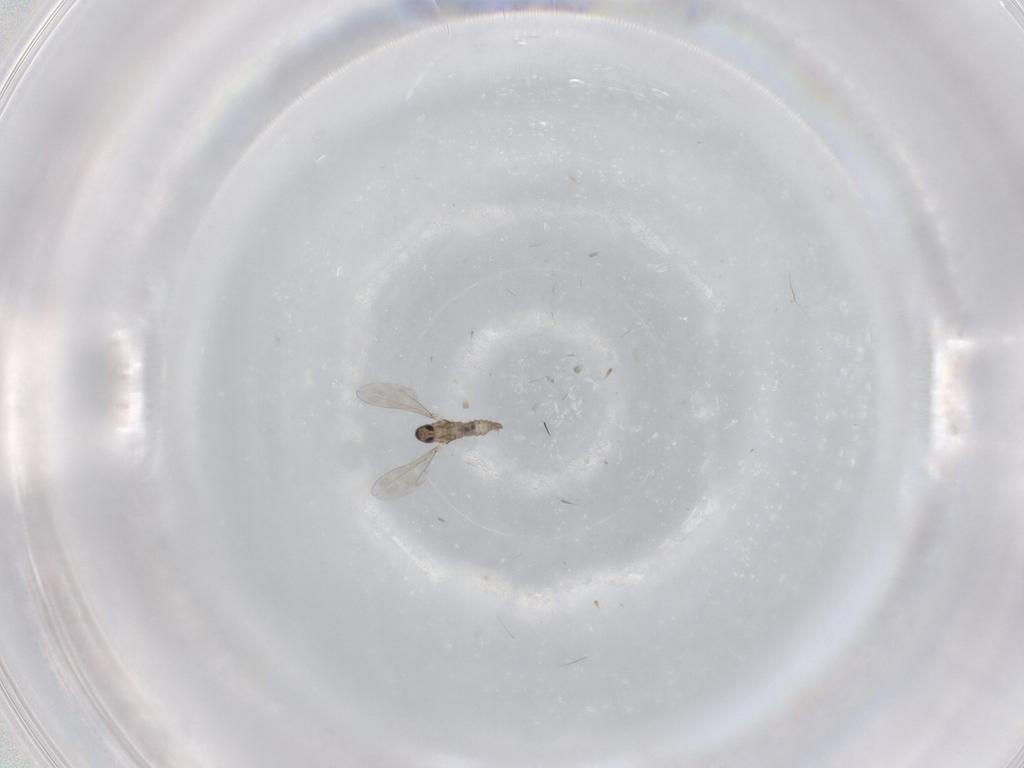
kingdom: Animalia
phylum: Arthropoda
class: Insecta
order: Diptera
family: Cecidomyiidae
